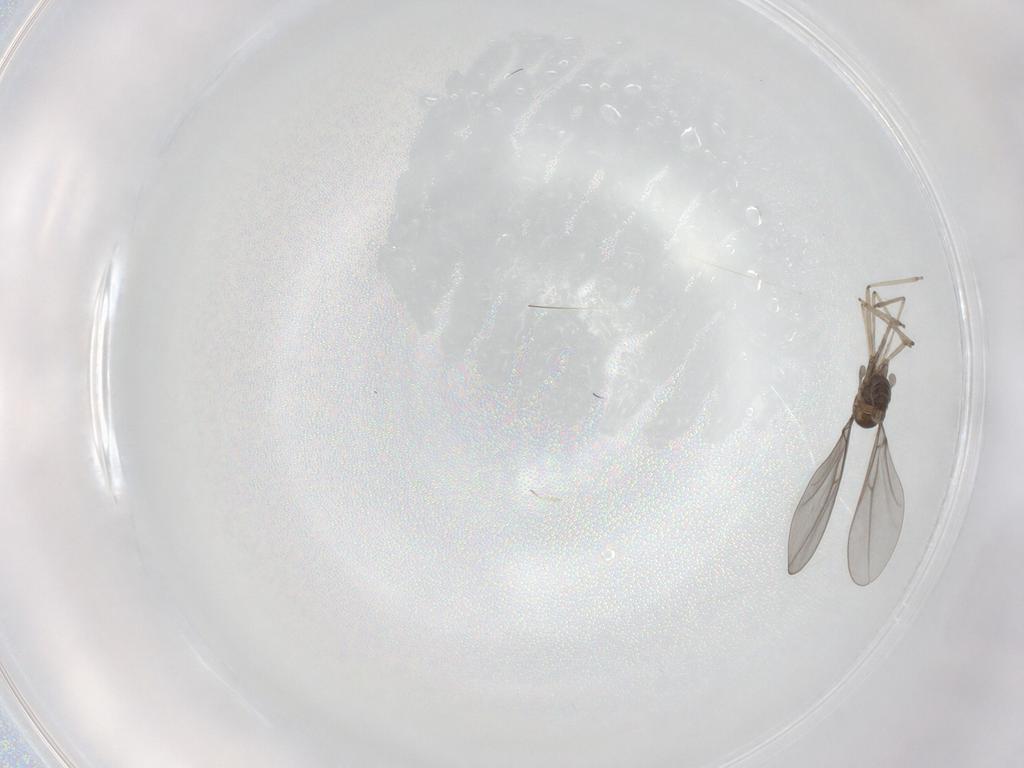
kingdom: Animalia
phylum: Arthropoda
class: Insecta
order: Diptera
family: Cecidomyiidae
